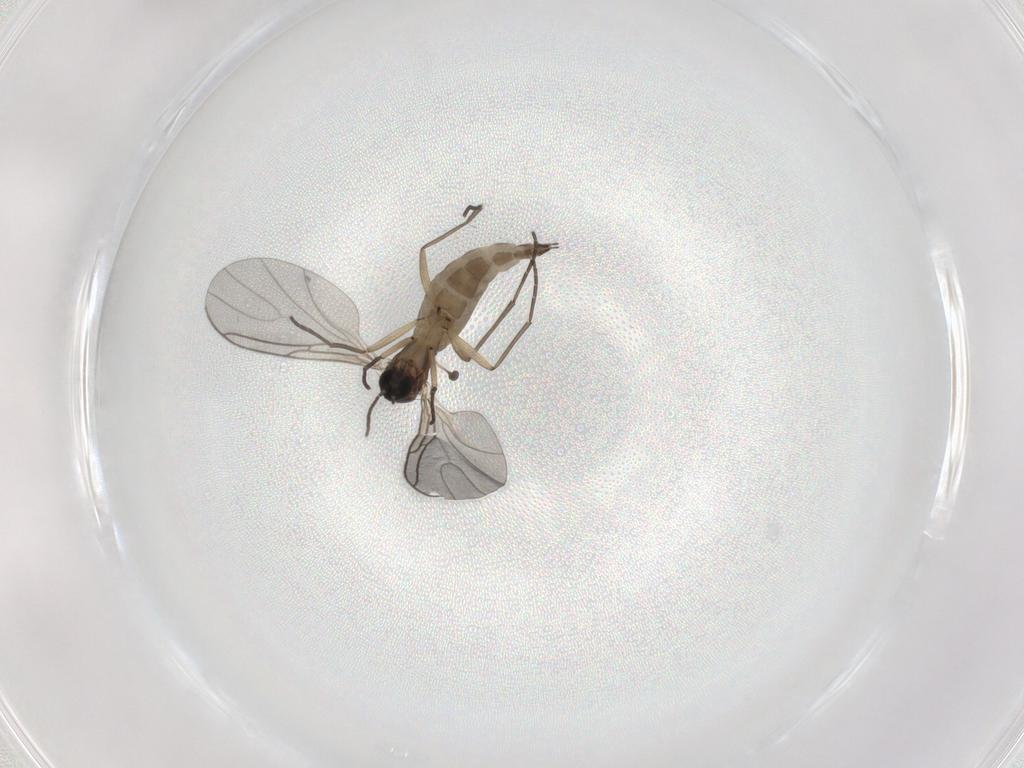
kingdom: Animalia
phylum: Arthropoda
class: Insecta
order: Diptera
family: Sciaridae
